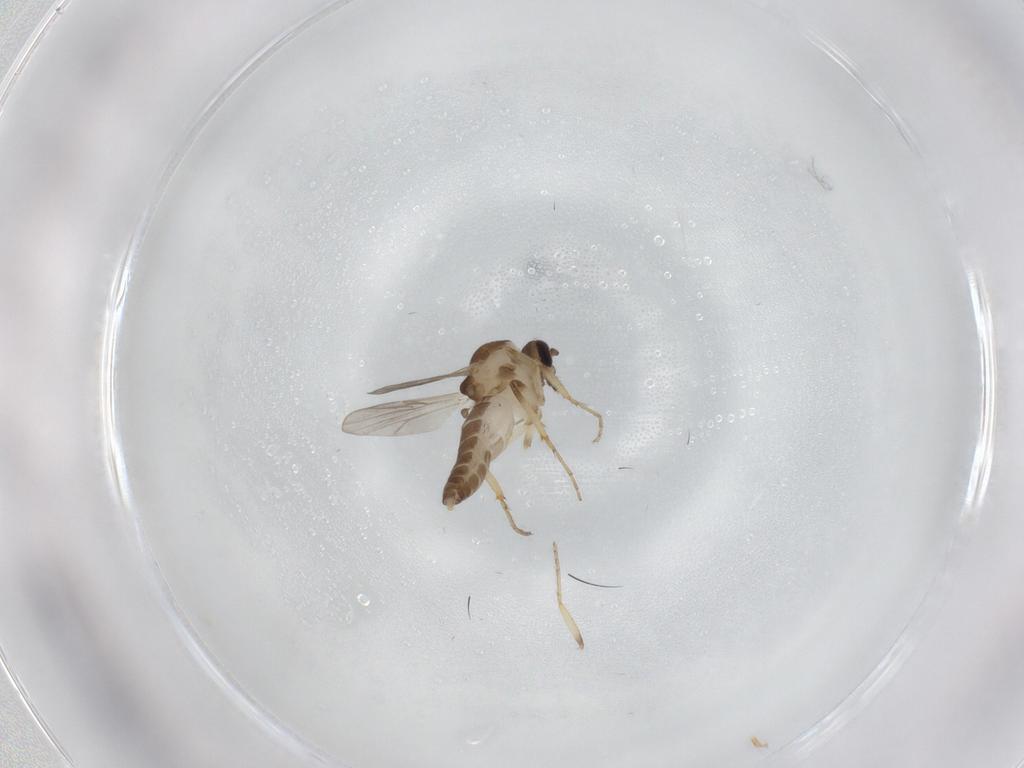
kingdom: Animalia
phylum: Arthropoda
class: Insecta
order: Diptera
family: Ceratopogonidae
